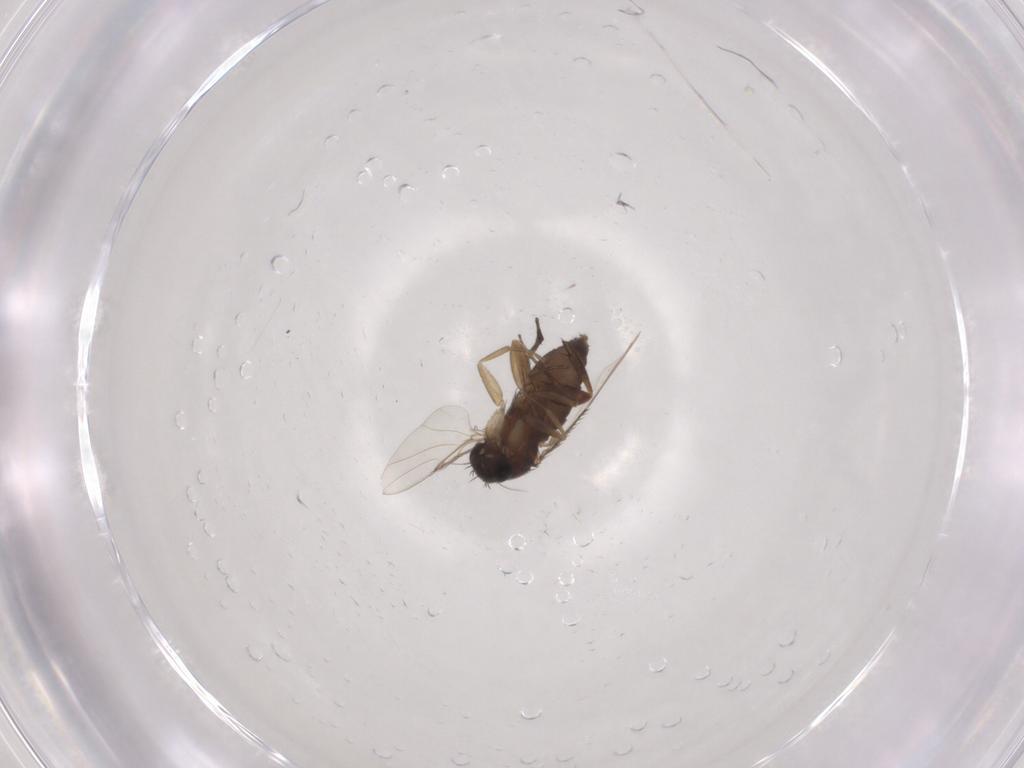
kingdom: Animalia
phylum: Arthropoda
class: Insecta
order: Diptera
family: Phoridae
